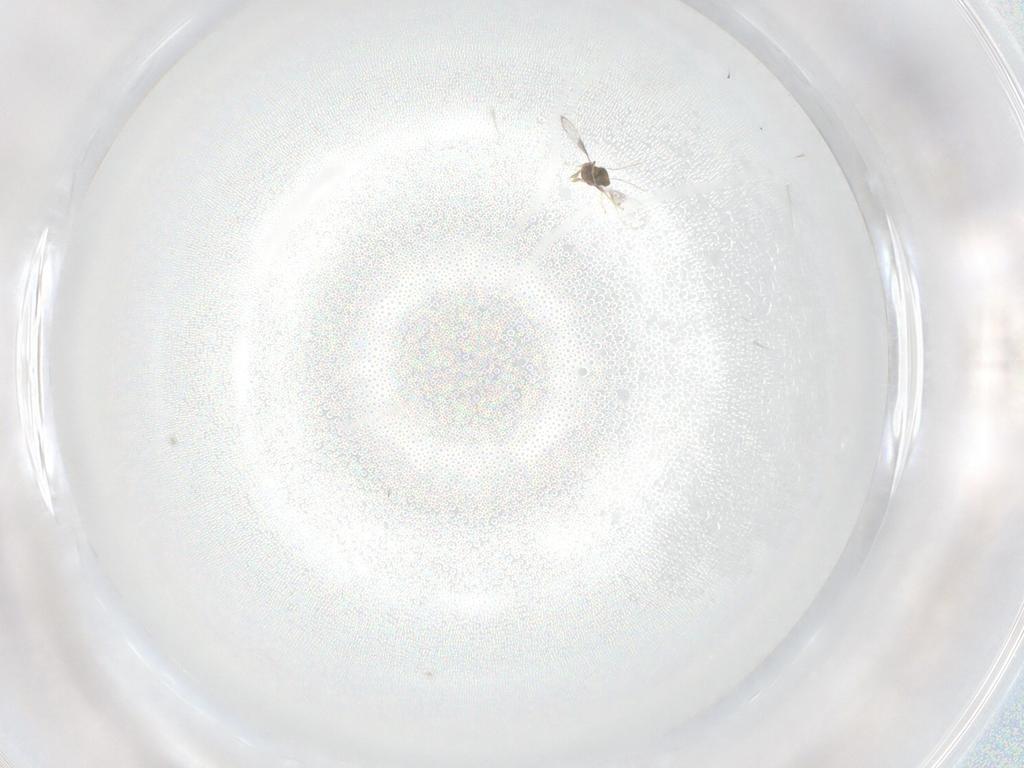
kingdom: Animalia
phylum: Arthropoda
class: Insecta
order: Hymenoptera
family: Trichogrammatidae
